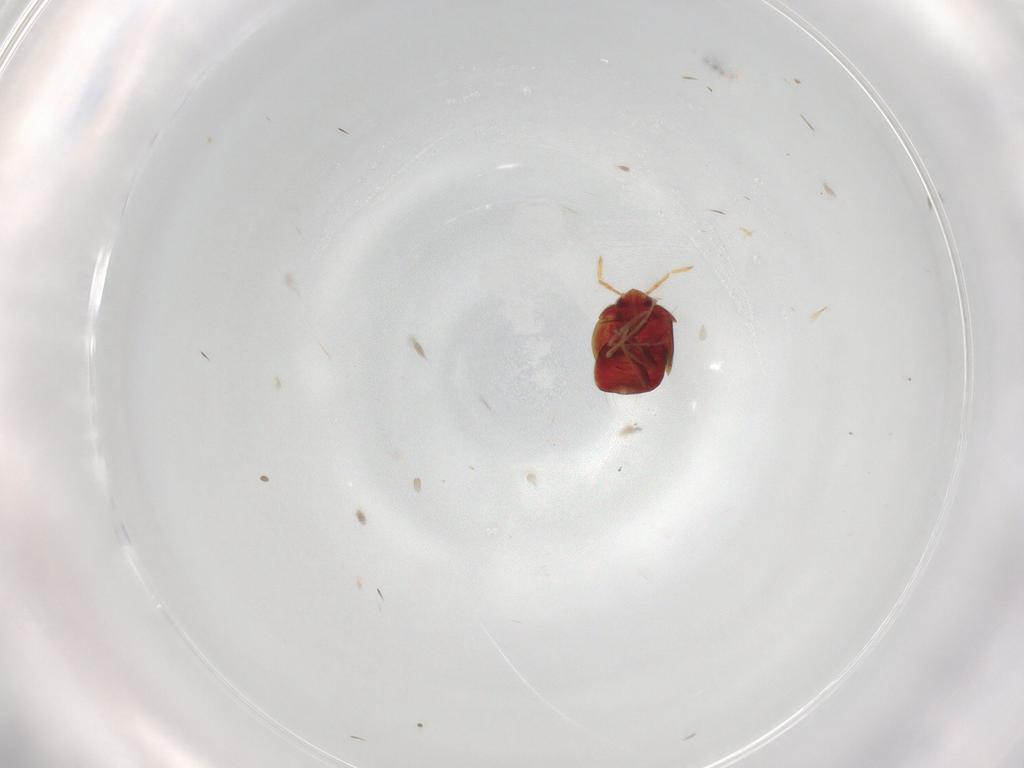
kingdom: Animalia
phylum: Arthropoda
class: Insecta
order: Hemiptera
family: Anthocoridae
